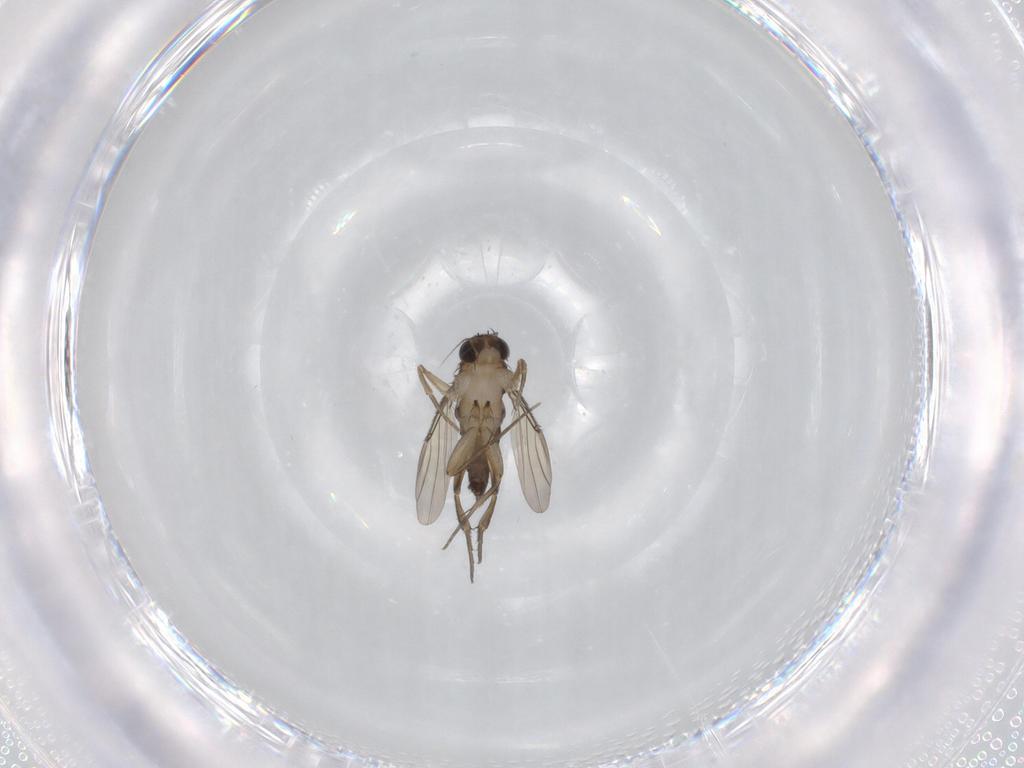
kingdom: Animalia
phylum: Arthropoda
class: Insecta
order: Diptera
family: Phoridae
